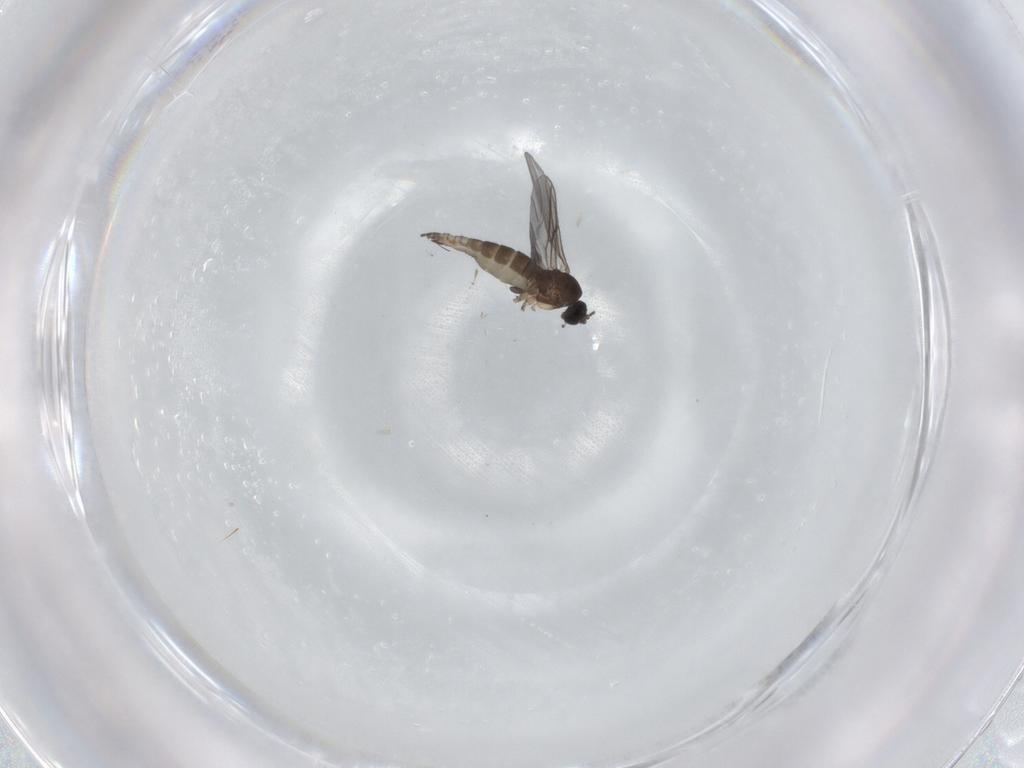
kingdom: Animalia
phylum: Arthropoda
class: Insecta
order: Diptera
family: Sciaridae
